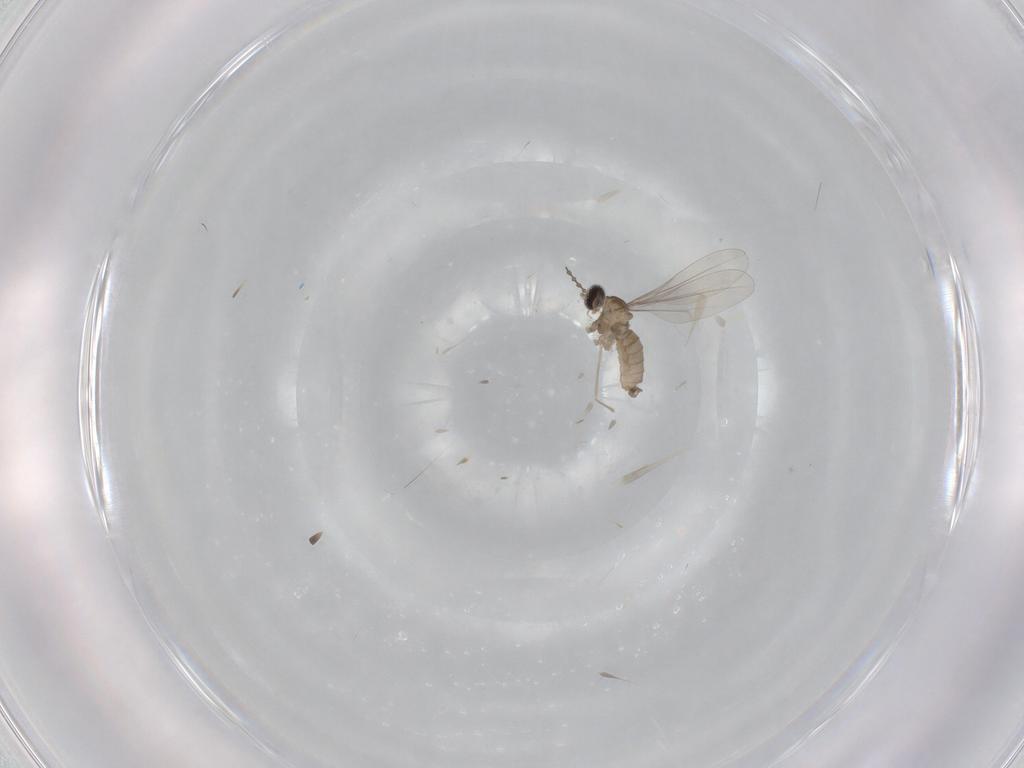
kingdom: Animalia
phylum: Arthropoda
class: Insecta
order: Diptera
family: Cecidomyiidae
